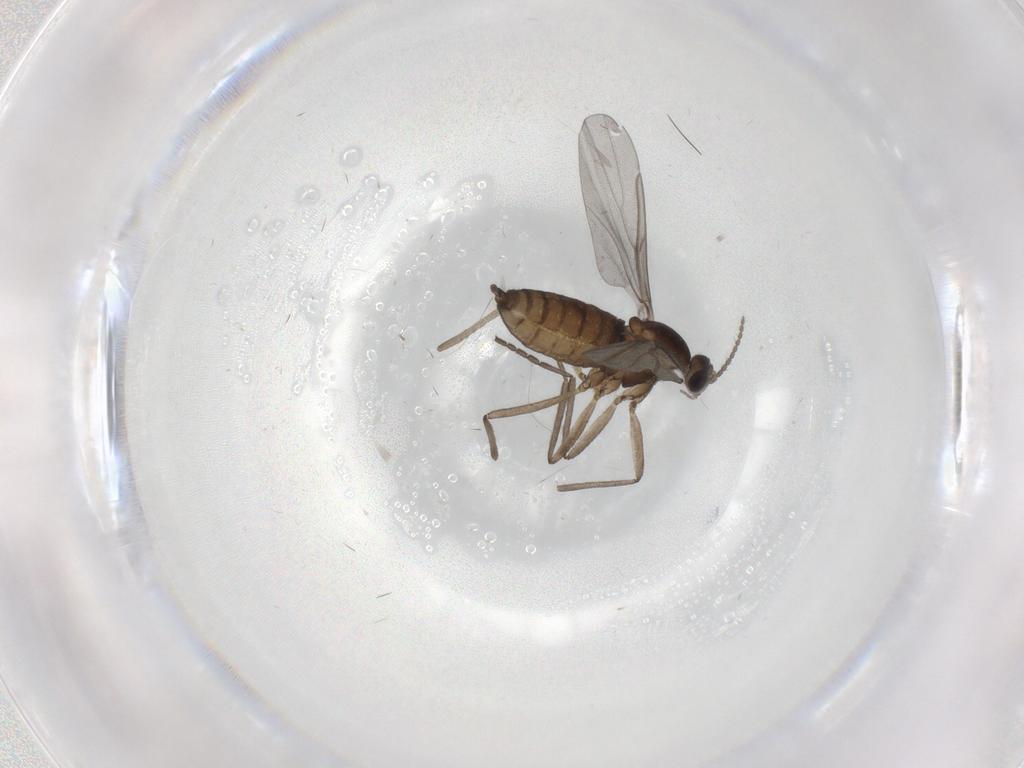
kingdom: Animalia
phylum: Arthropoda
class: Insecta
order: Diptera
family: Cecidomyiidae
